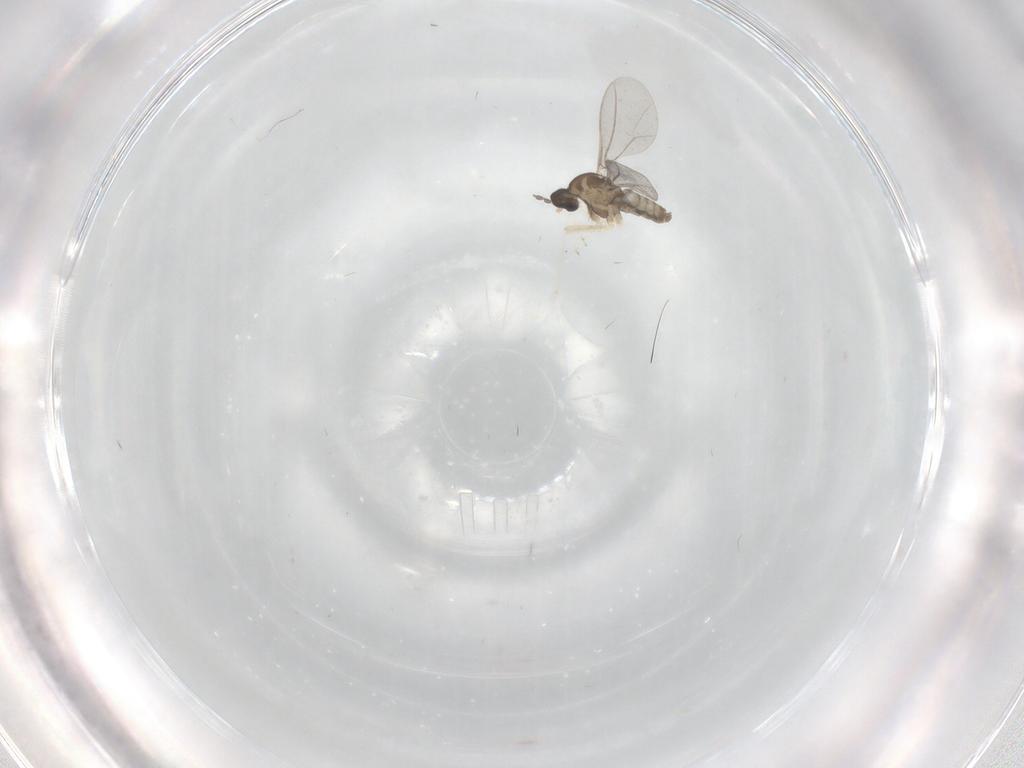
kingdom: Animalia
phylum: Arthropoda
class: Insecta
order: Diptera
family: Cecidomyiidae
